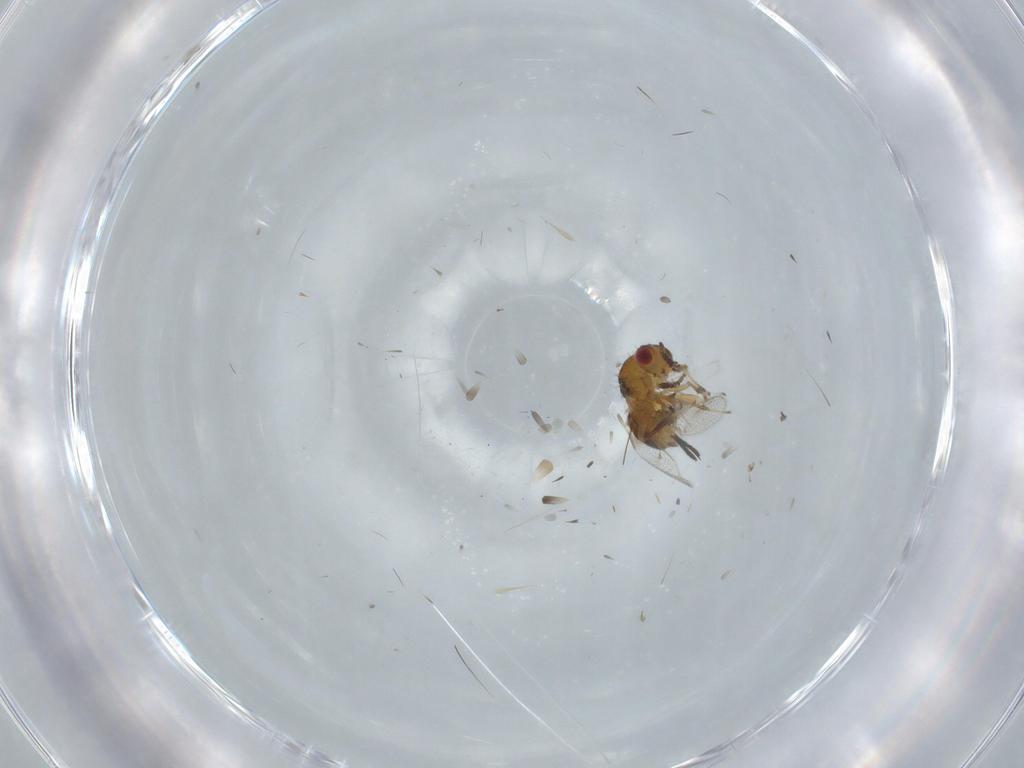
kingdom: Animalia
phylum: Arthropoda
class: Insecta
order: Hymenoptera
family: Torymidae
